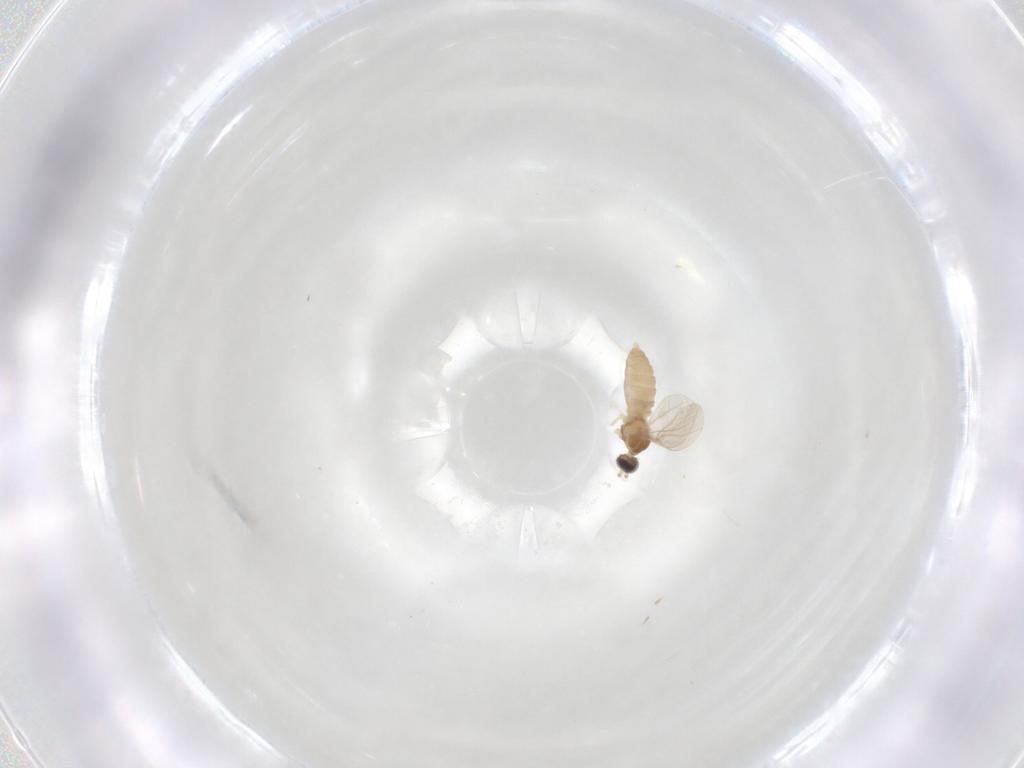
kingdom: Animalia
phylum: Arthropoda
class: Insecta
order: Diptera
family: Cecidomyiidae
